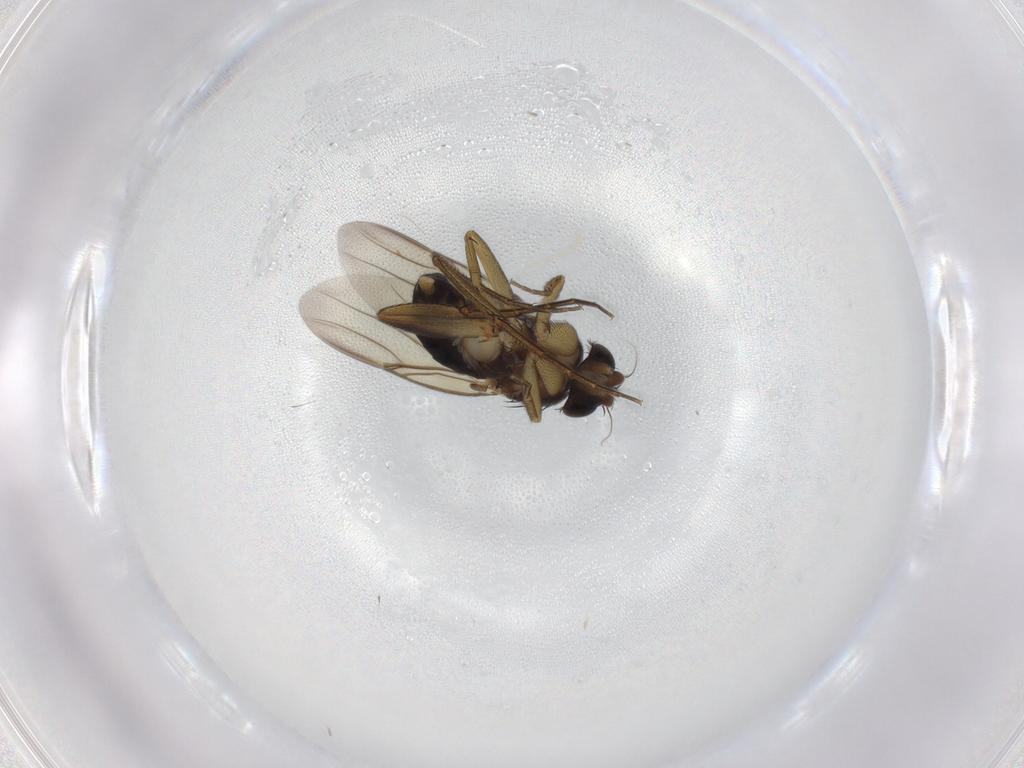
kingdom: Animalia
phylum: Arthropoda
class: Insecta
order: Diptera
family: Phoridae
